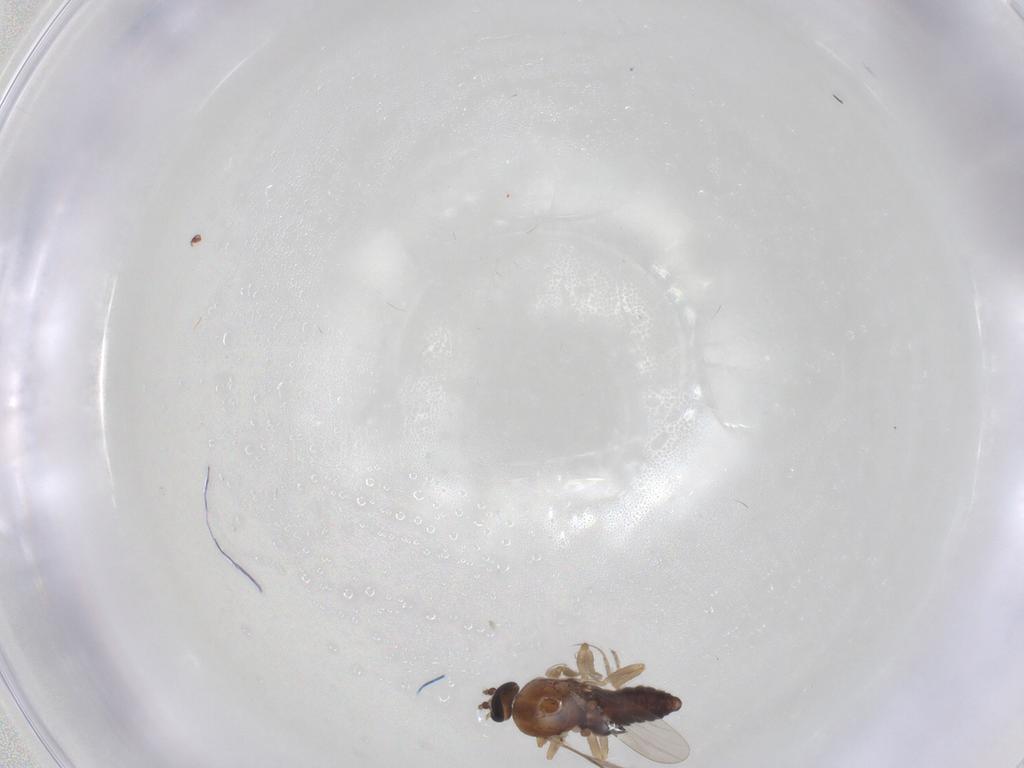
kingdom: Animalia
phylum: Arthropoda
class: Insecta
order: Diptera
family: Ceratopogonidae
